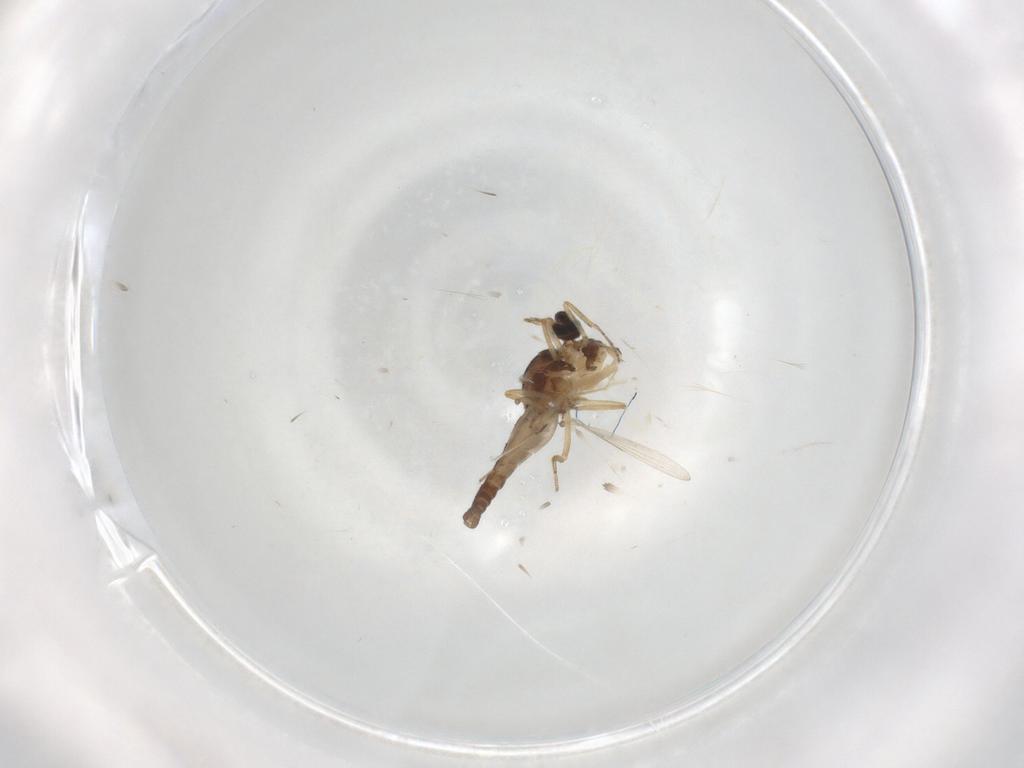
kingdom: Animalia
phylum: Arthropoda
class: Insecta
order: Diptera
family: Ceratopogonidae
